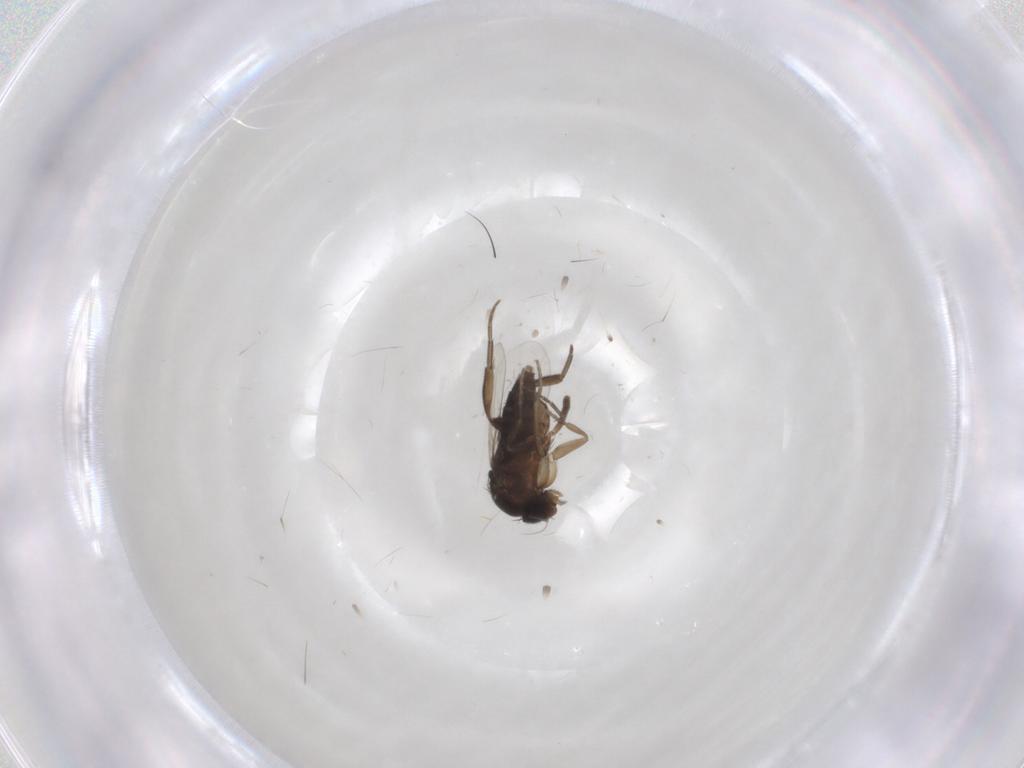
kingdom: Animalia
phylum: Arthropoda
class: Insecta
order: Diptera
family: Phoridae
